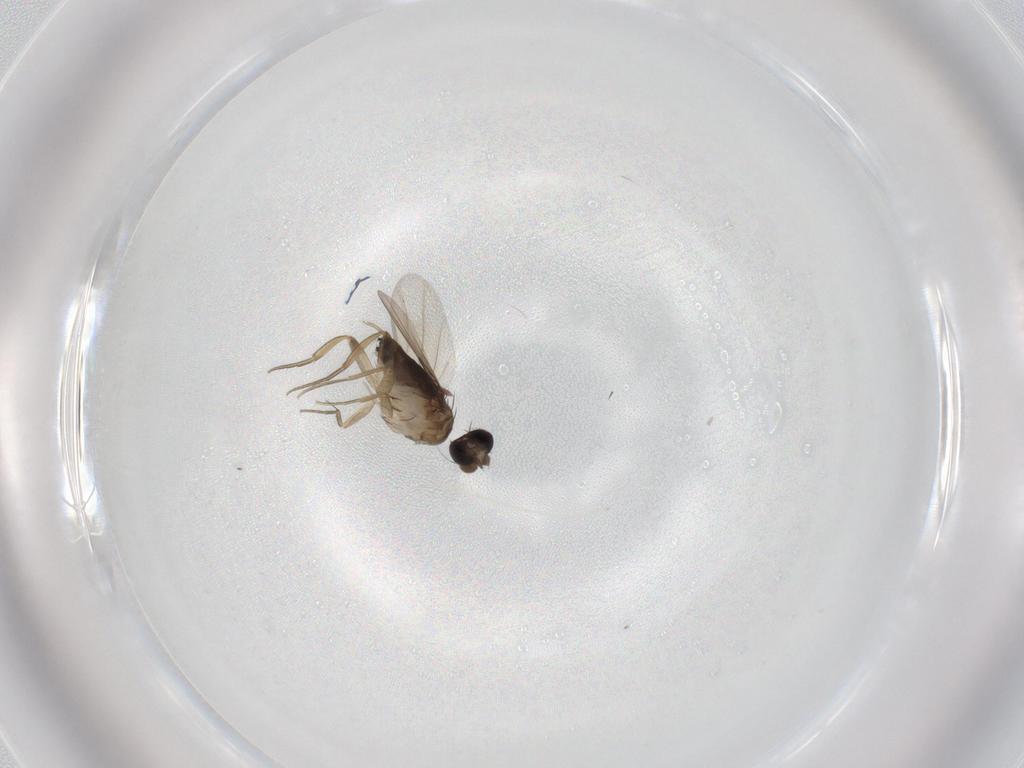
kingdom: Animalia
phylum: Arthropoda
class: Insecta
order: Diptera
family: Cecidomyiidae
